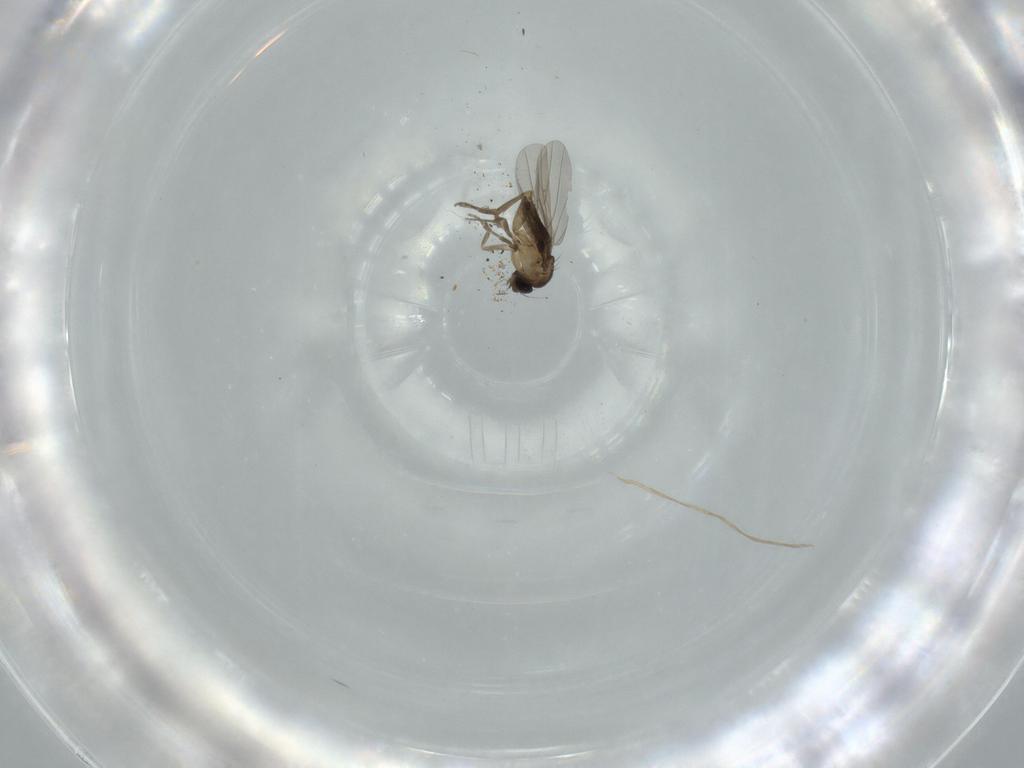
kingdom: Animalia
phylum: Arthropoda
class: Insecta
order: Diptera
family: Phoridae
